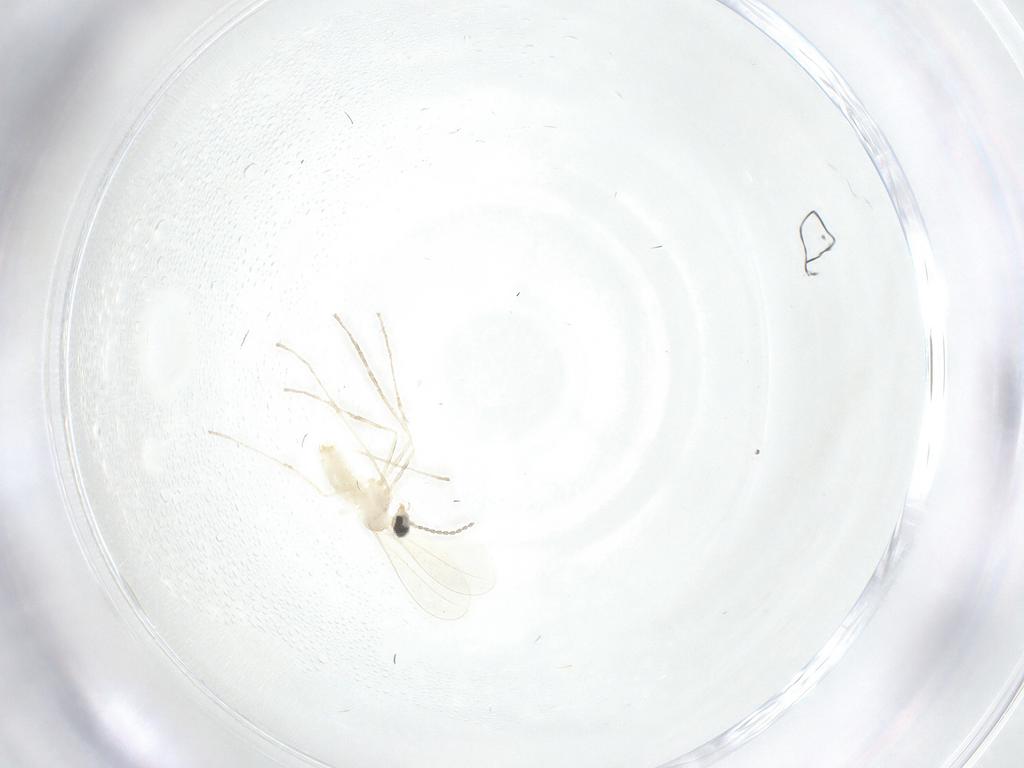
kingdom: Animalia
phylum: Arthropoda
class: Insecta
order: Diptera
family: Cecidomyiidae
